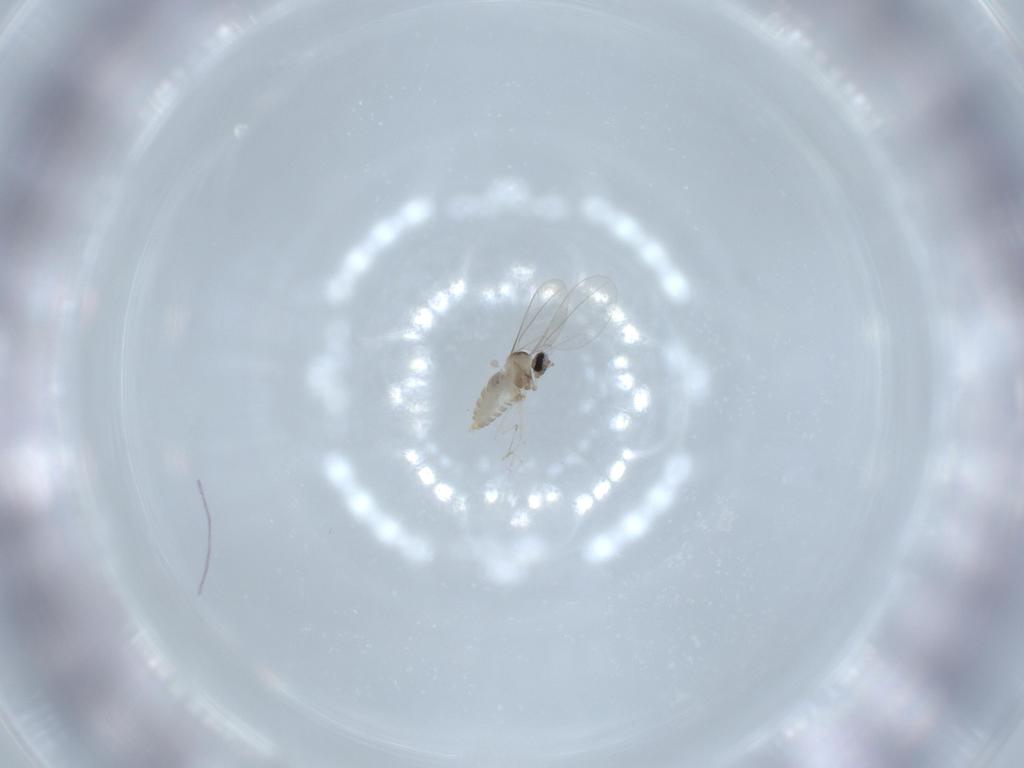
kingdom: Animalia
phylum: Arthropoda
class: Insecta
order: Diptera
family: Cecidomyiidae
